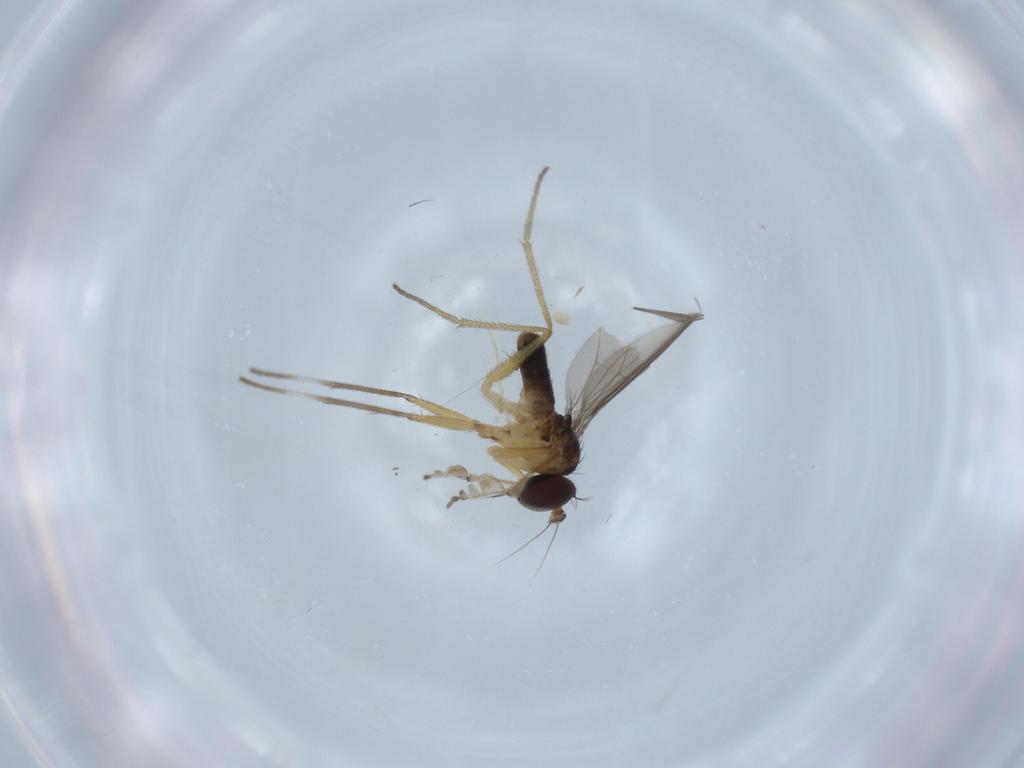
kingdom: Animalia
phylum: Arthropoda
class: Insecta
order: Diptera
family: Dolichopodidae
